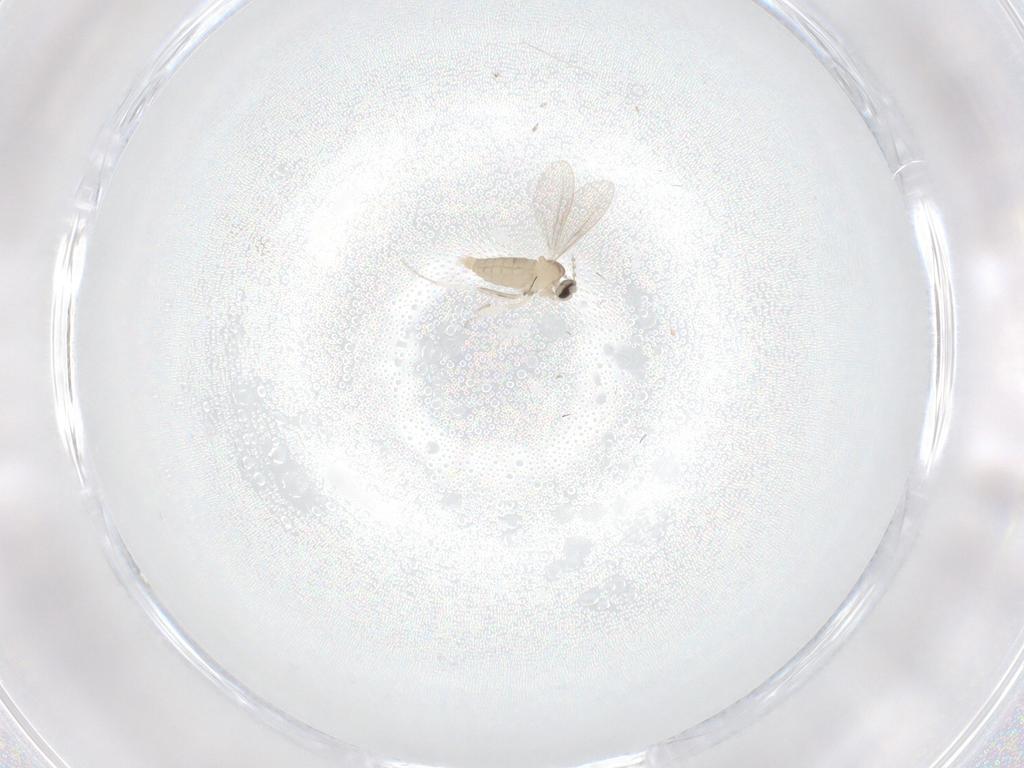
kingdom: Animalia
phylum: Arthropoda
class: Insecta
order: Diptera
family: Cecidomyiidae
